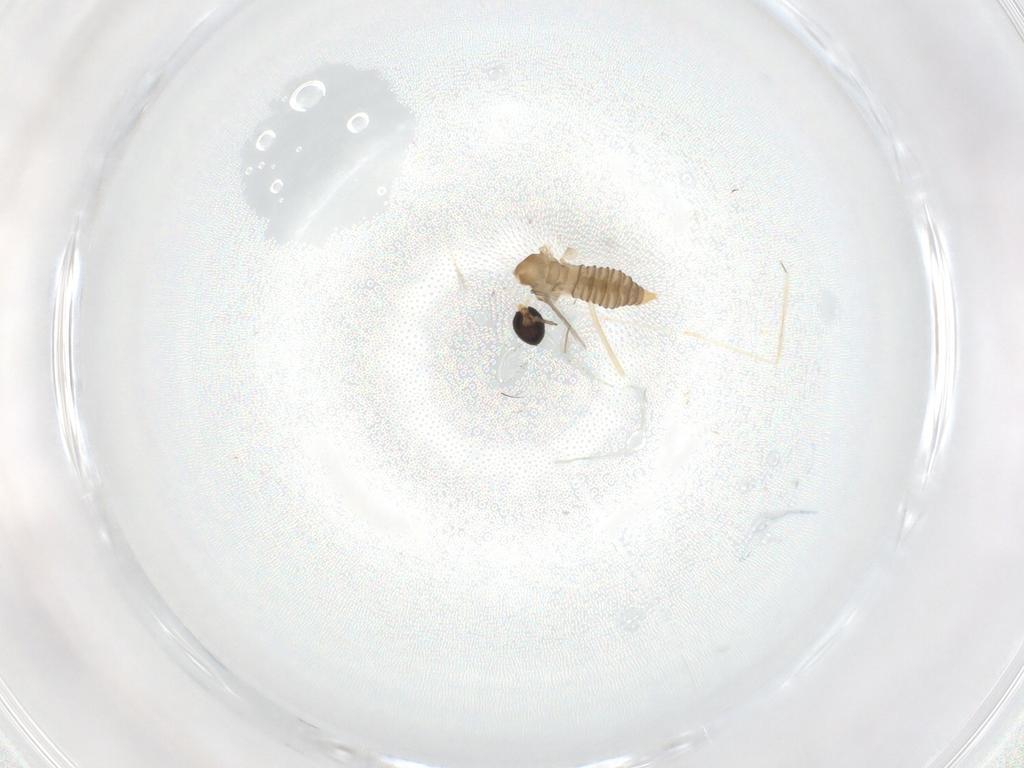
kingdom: Animalia
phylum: Arthropoda
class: Insecta
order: Diptera
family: Cecidomyiidae
